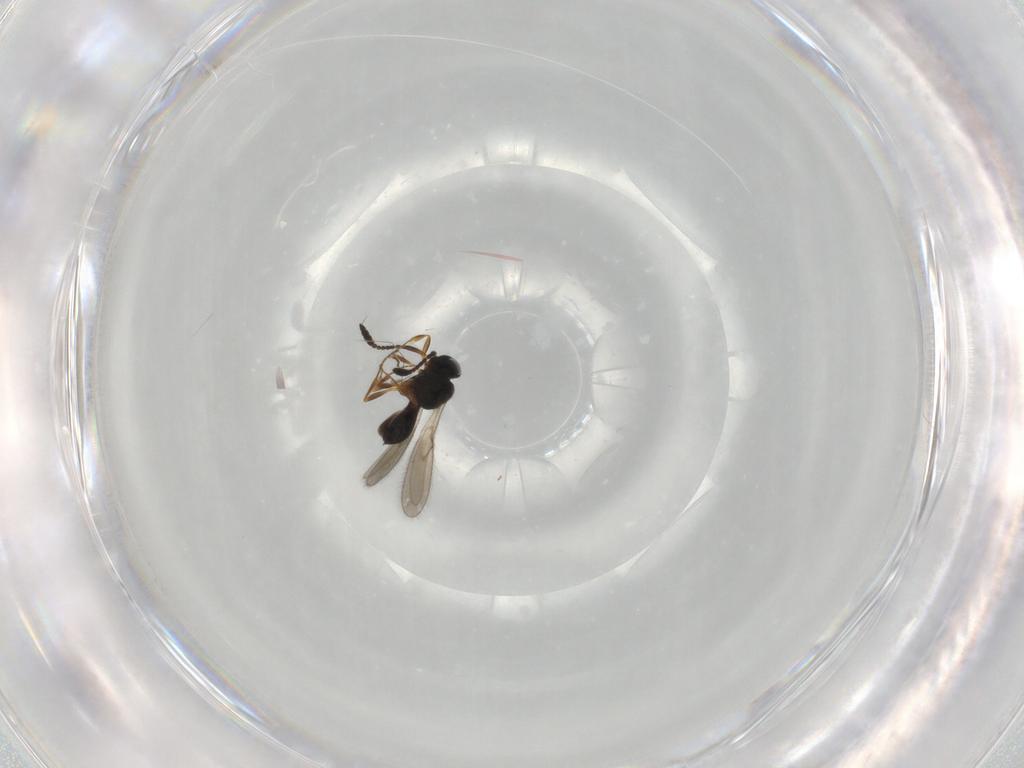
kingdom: Animalia
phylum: Arthropoda
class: Insecta
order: Hymenoptera
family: Scelionidae
